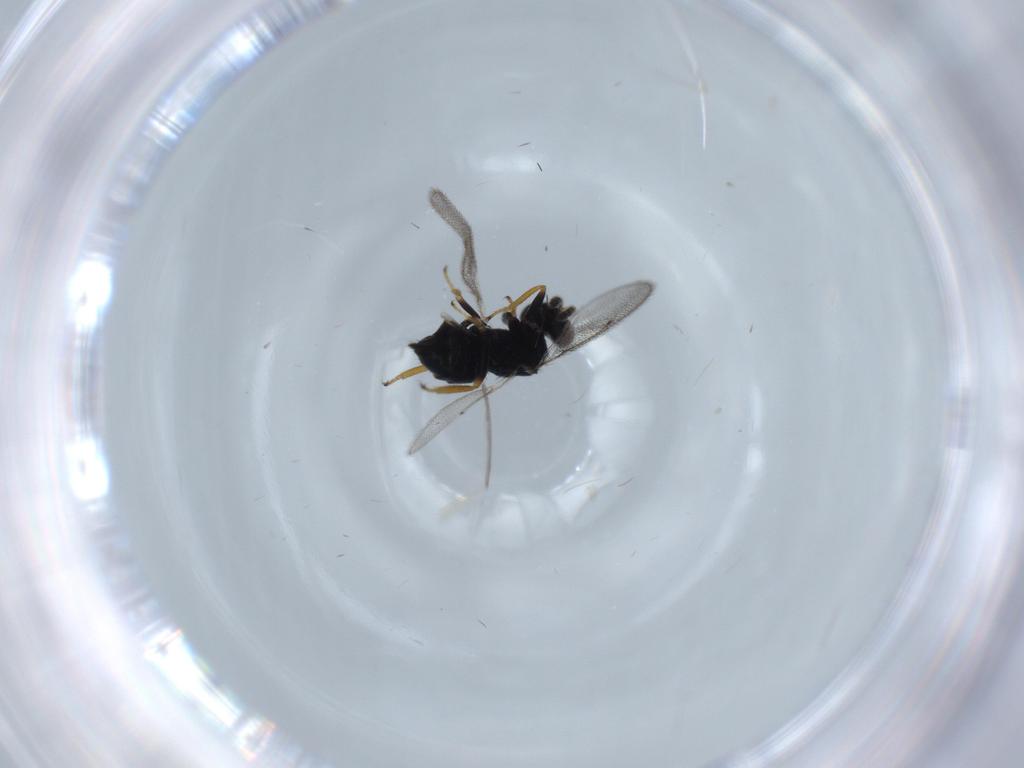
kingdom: Animalia
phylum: Arthropoda
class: Insecta
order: Hymenoptera
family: Eulophidae
